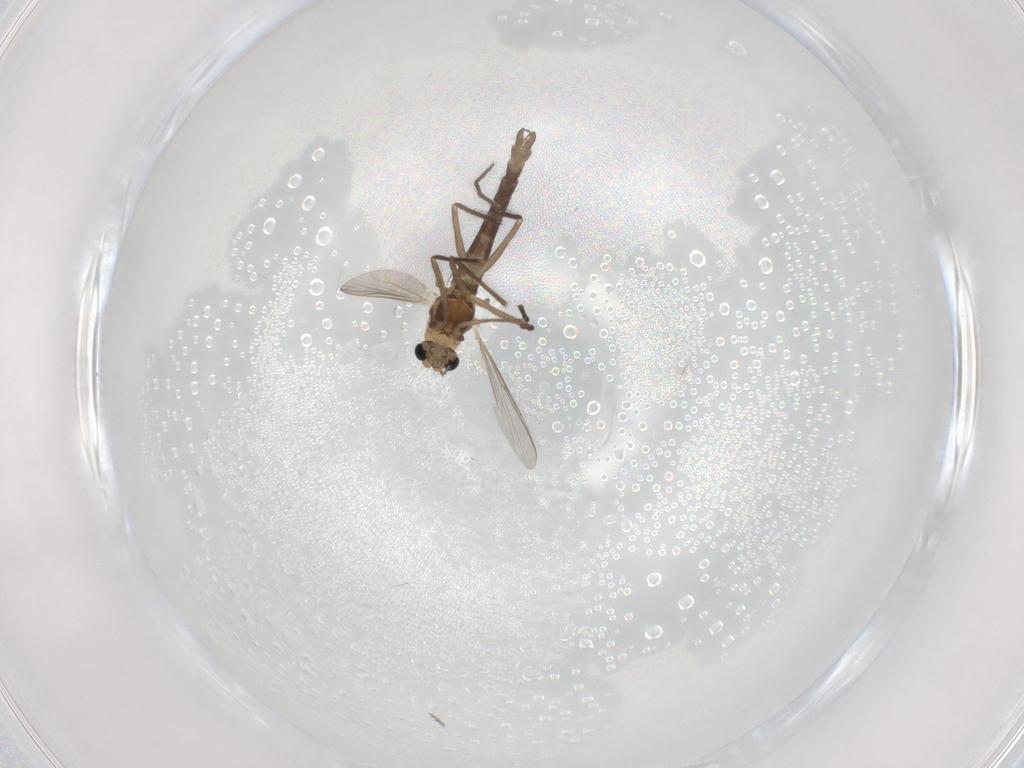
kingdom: Animalia
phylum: Arthropoda
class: Insecta
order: Diptera
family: Chironomidae
